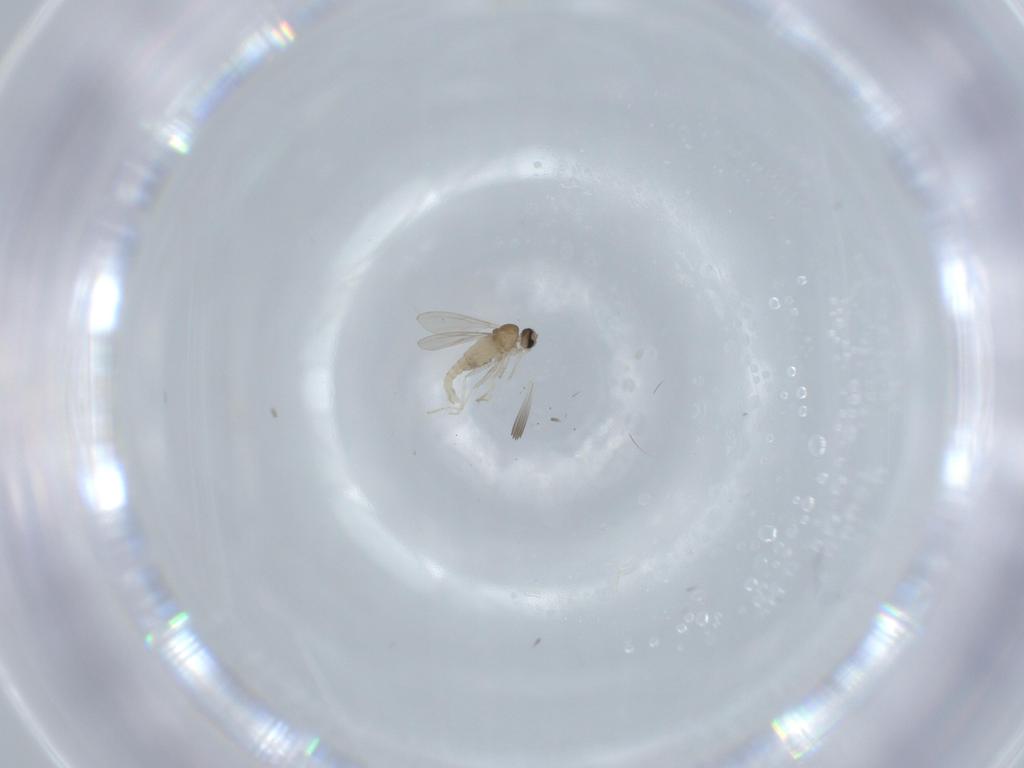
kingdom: Animalia
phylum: Arthropoda
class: Insecta
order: Diptera
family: Cecidomyiidae
